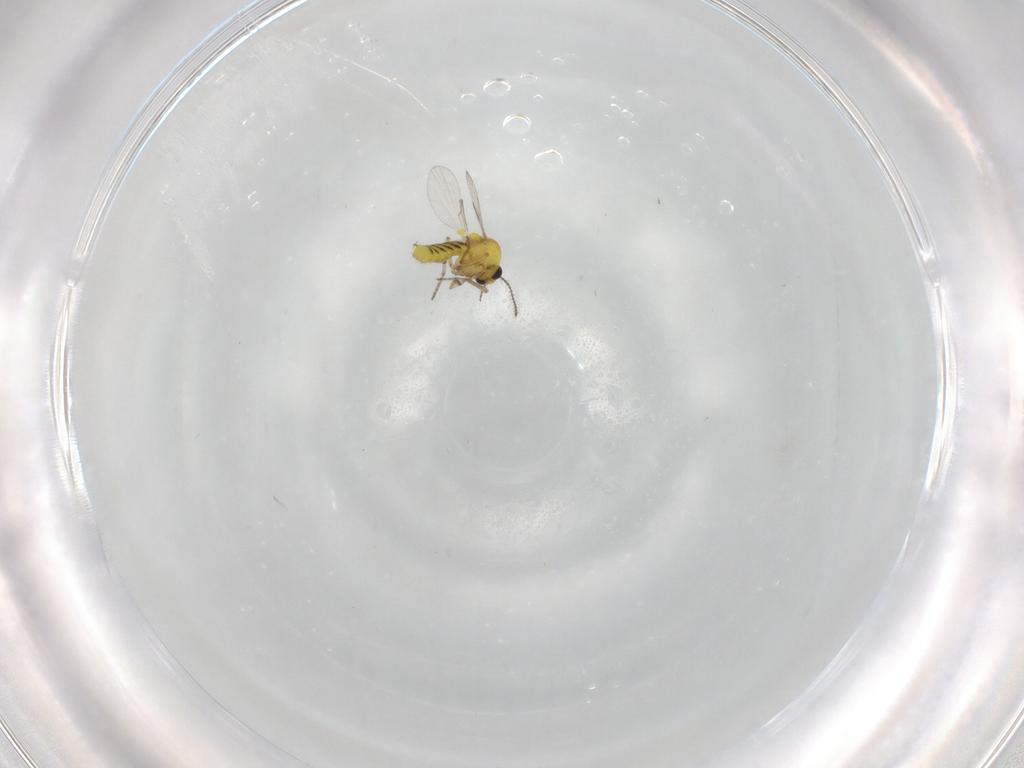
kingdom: Animalia
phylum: Arthropoda
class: Insecta
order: Diptera
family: Ceratopogonidae
